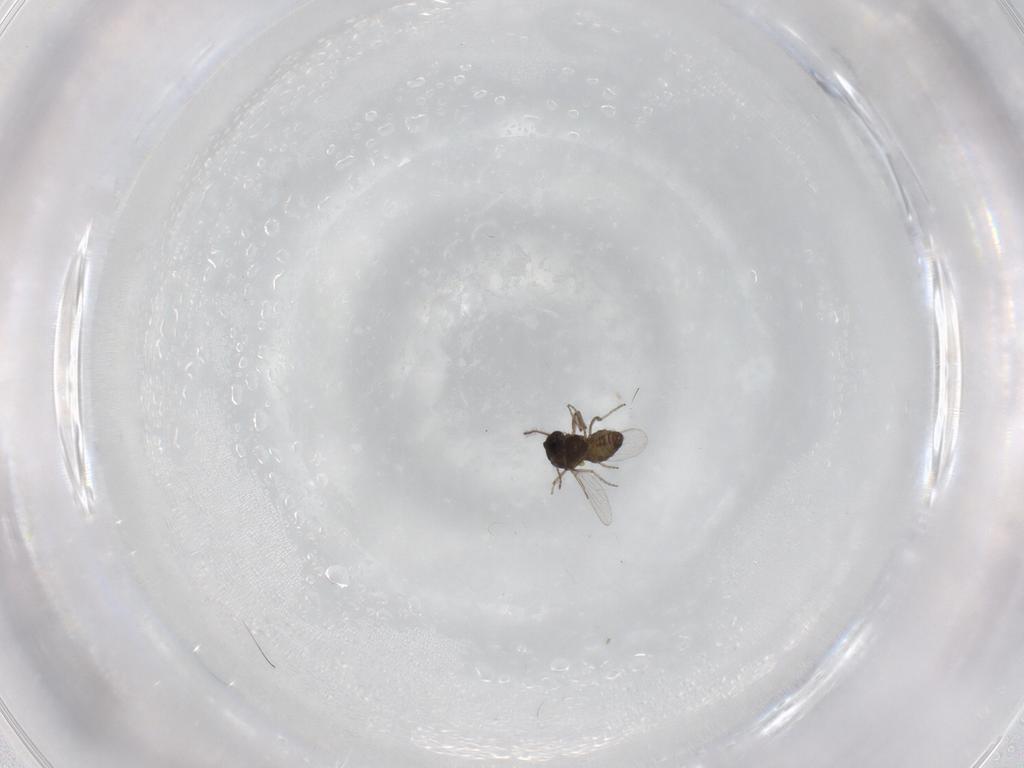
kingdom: Animalia
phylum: Arthropoda
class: Insecta
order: Diptera
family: Ceratopogonidae
